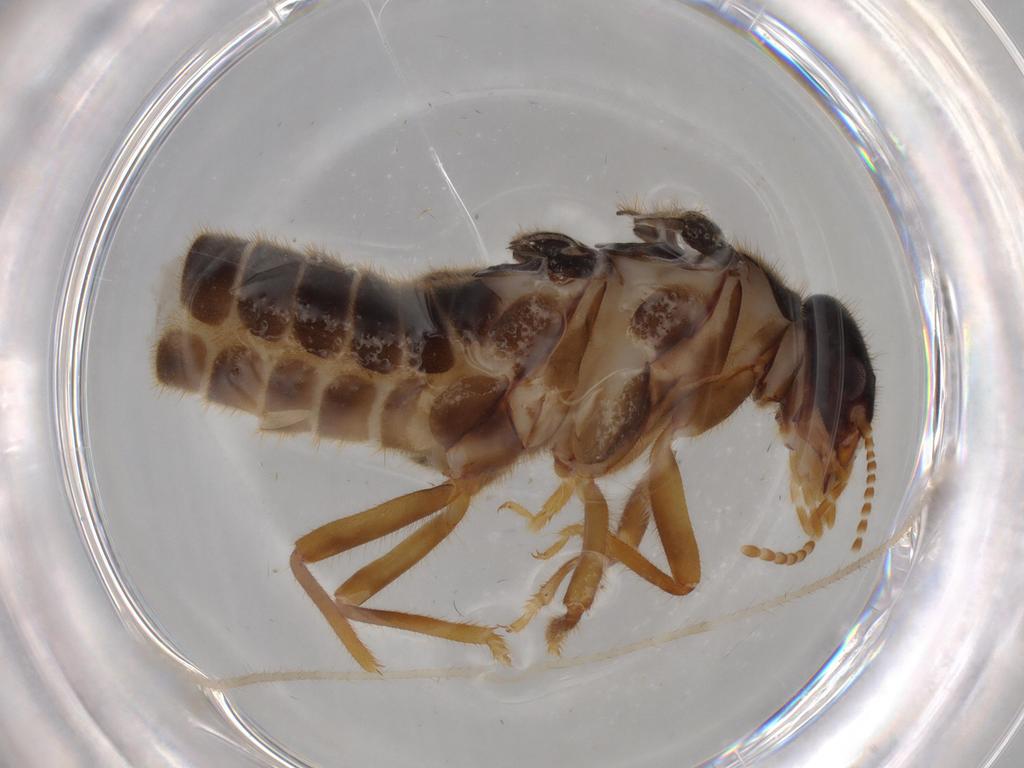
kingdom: Animalia
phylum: Arthropoda
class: Insecta
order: Blattodea
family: Termitidae
